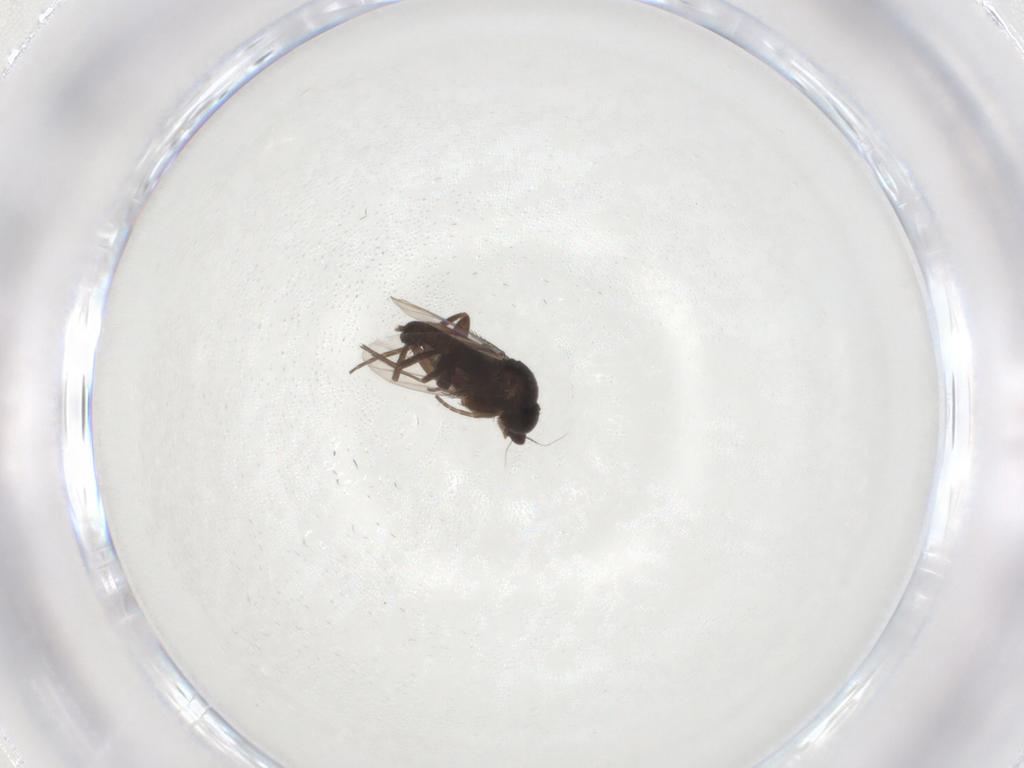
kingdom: Animalia
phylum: Arthropoda
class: Insecta
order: Diptera
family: Phoridae
